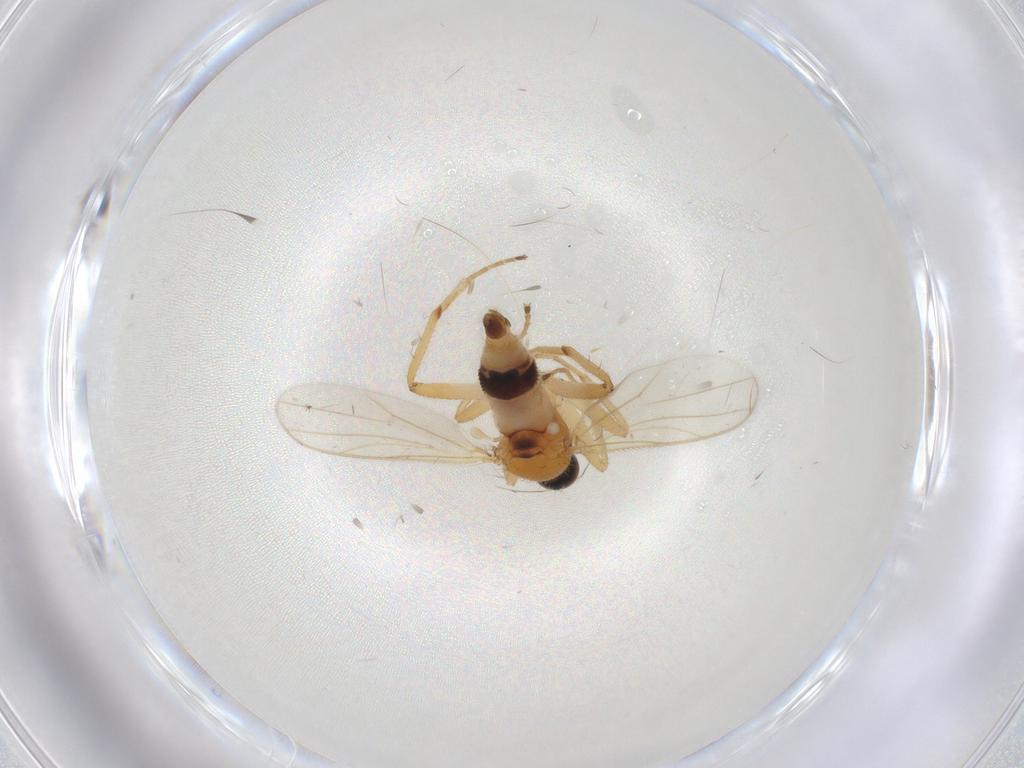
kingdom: Animalia
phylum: Arthropoda
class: Insecta
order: Diptera
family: Hybotidae
